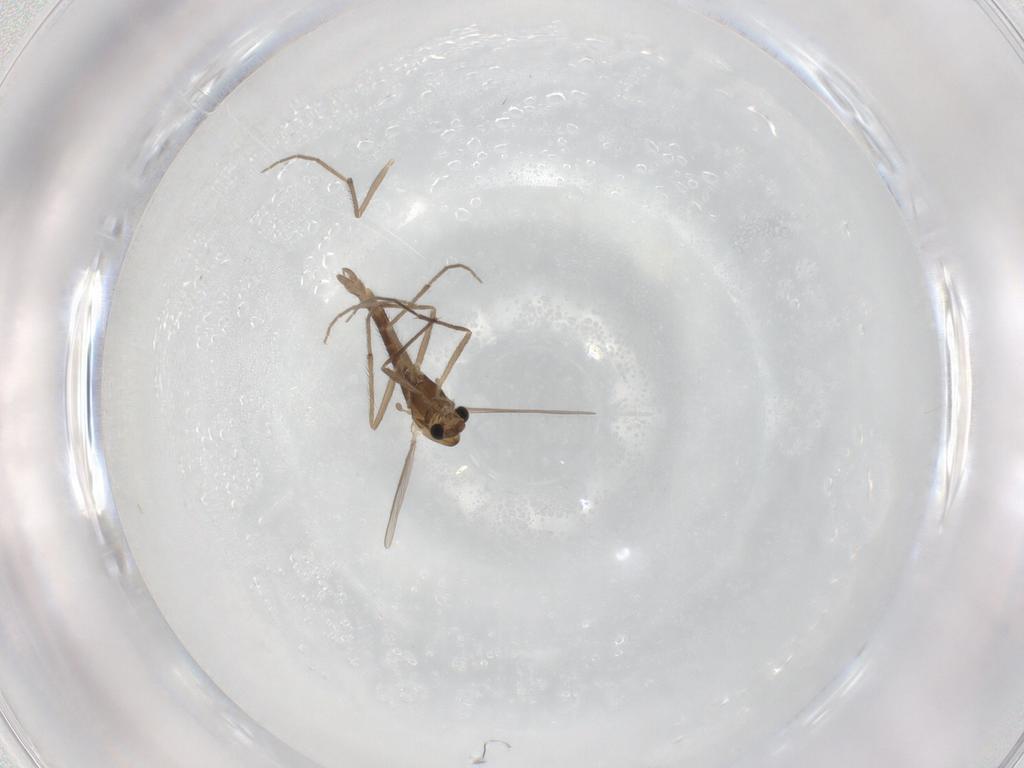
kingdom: Animalia
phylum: Arthropoda
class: Insecta
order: Diptera
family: Chironomidae
